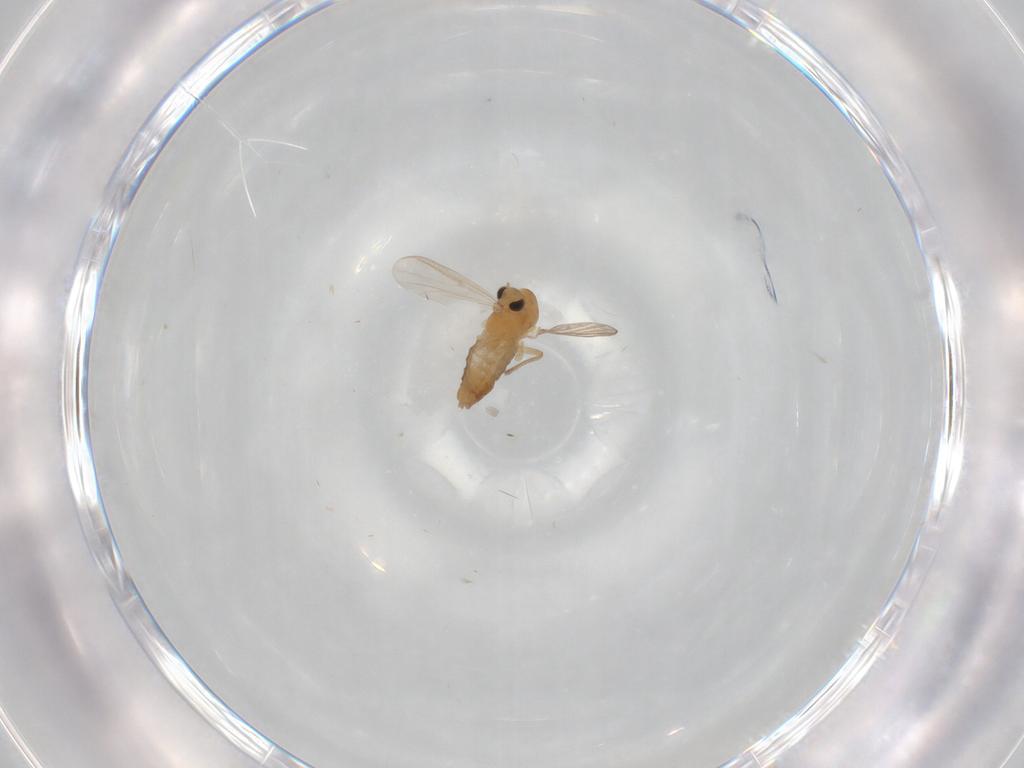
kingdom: Animalia
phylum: Arthropoda
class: Insecta
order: Diptera
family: Chironomidae
